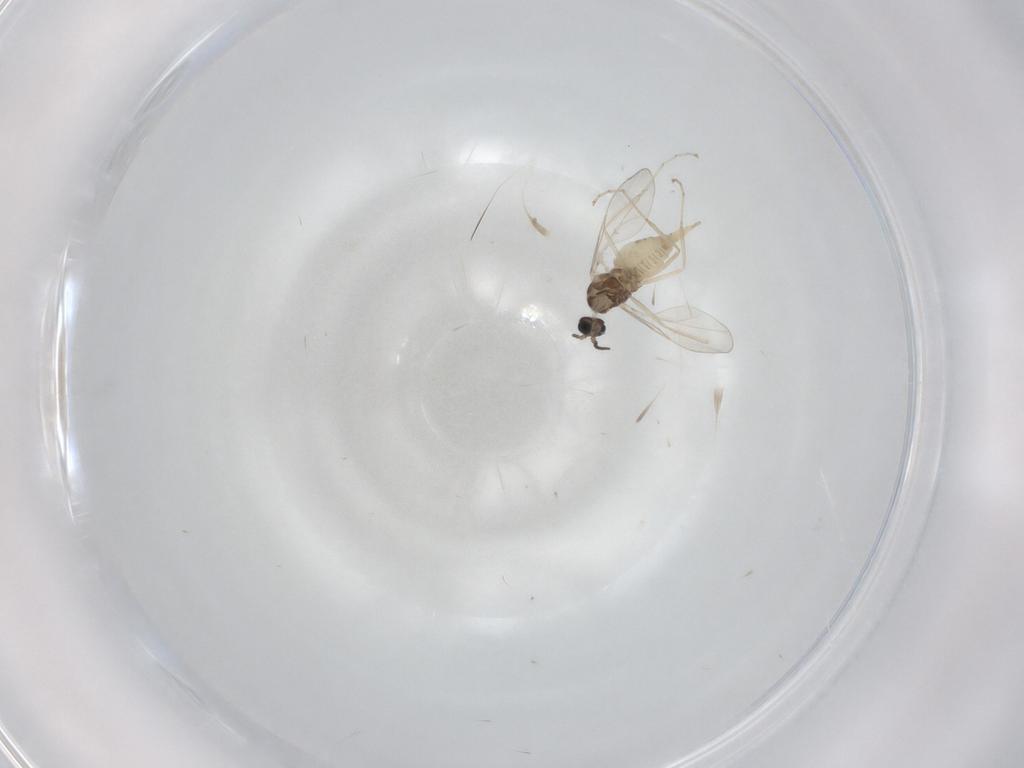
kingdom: Animalia
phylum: Arthropoda
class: Insecta
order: Diptera
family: Cecidomyiidae
